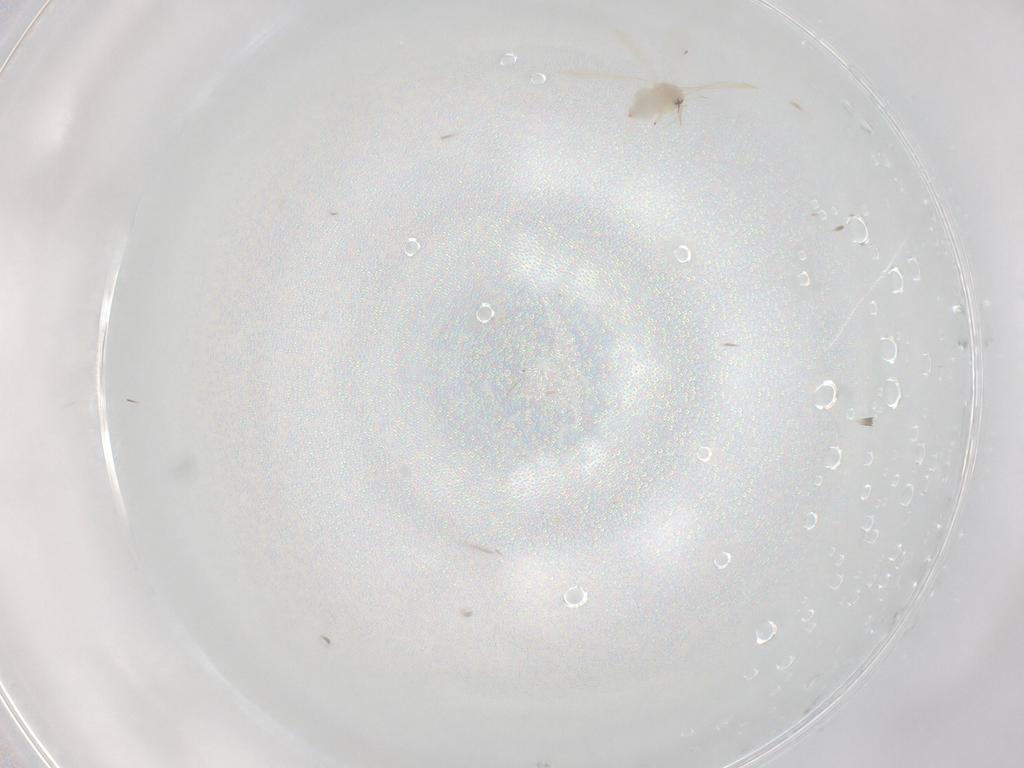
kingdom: Animalia
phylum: Arthropoda
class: Insecta
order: Hemiptera
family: Aleyrodidae
